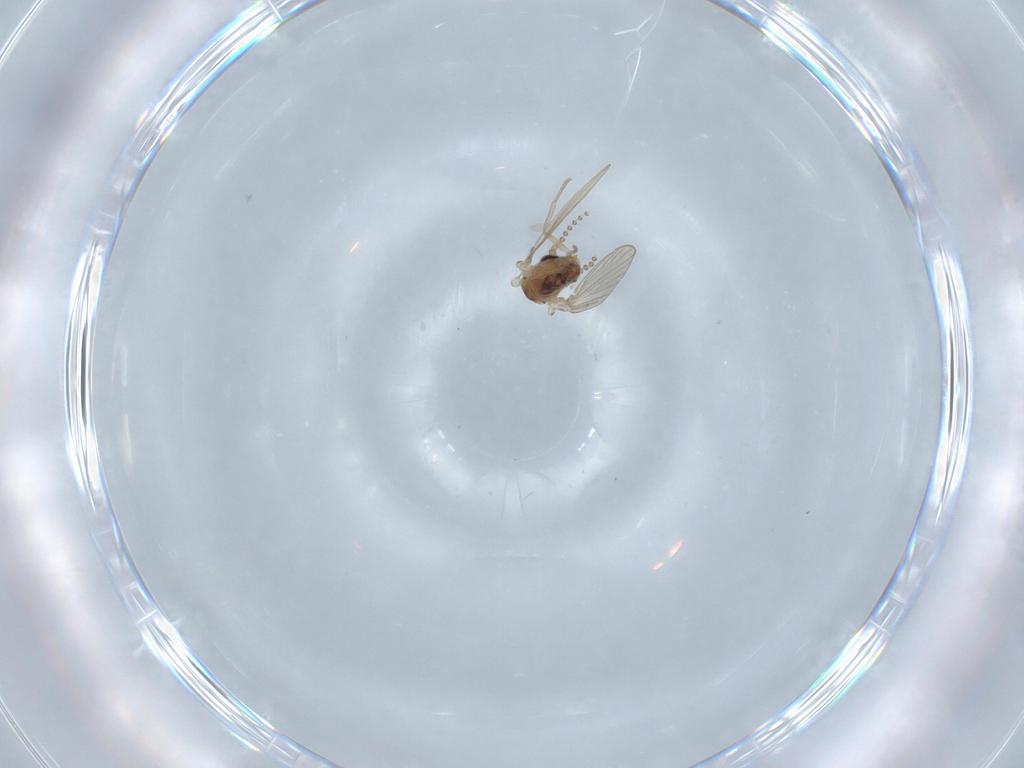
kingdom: Animalia
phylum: Arthropoda
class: Insecta
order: Diptera
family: Psychodidae
